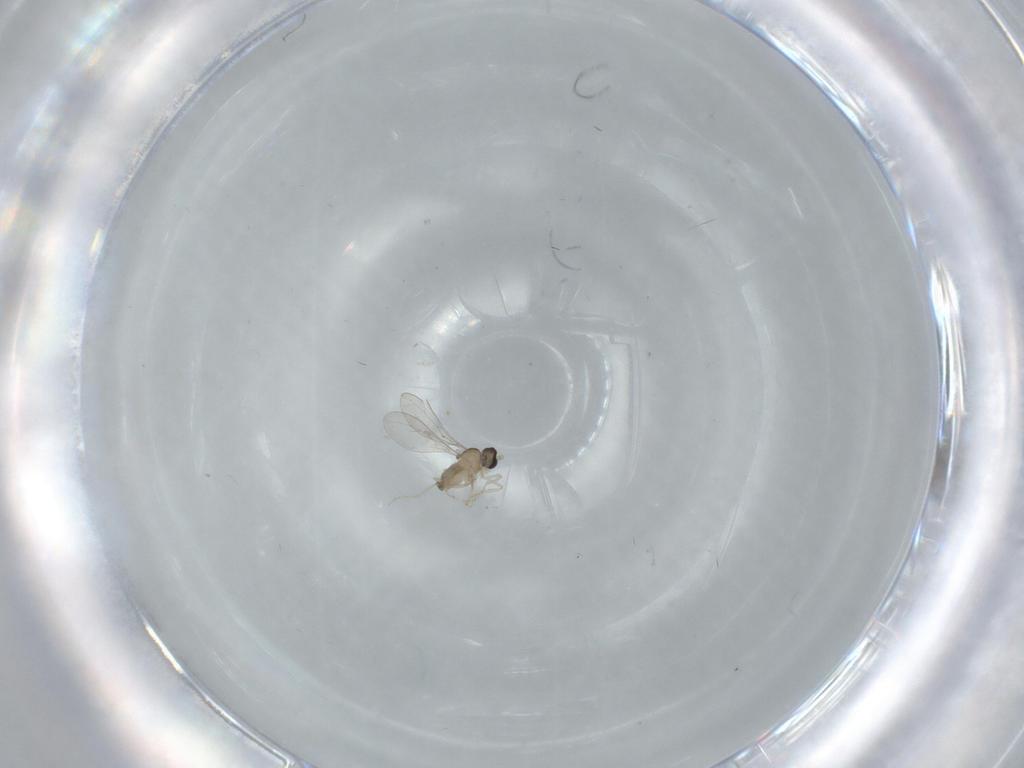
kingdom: Animalia
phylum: Arthropoda
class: Insecta
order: Diptera
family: Cecidomyiidae
